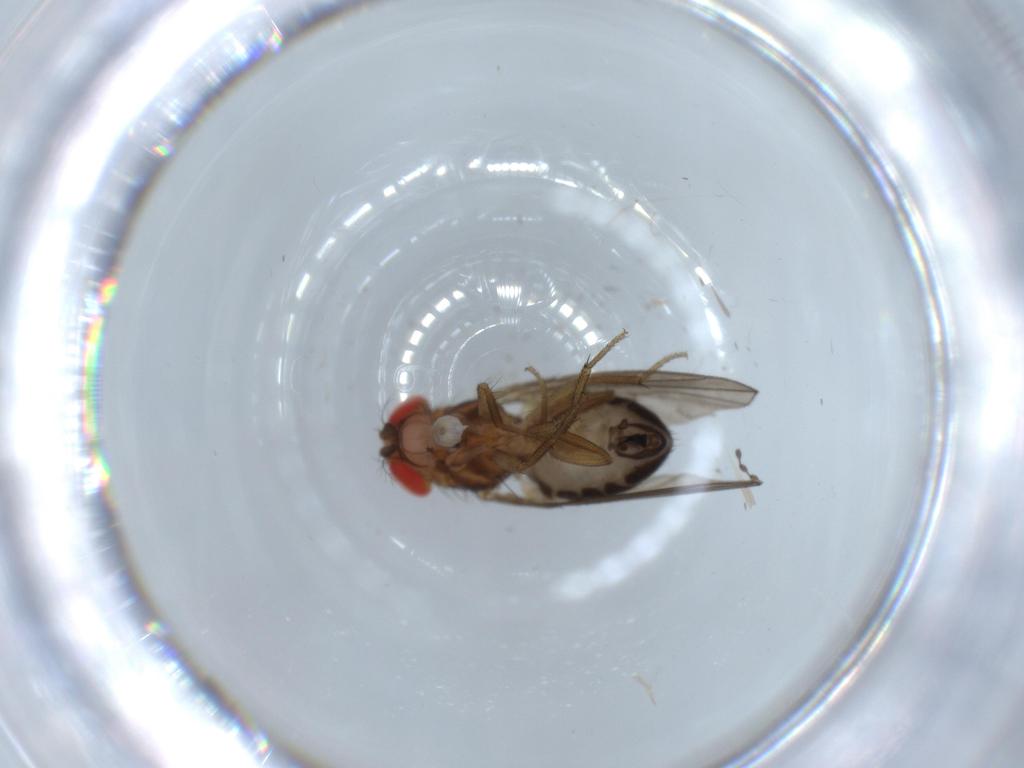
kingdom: Animalia
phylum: Arthropoda
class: Insecta
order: Diptera
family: Drosophilidae
